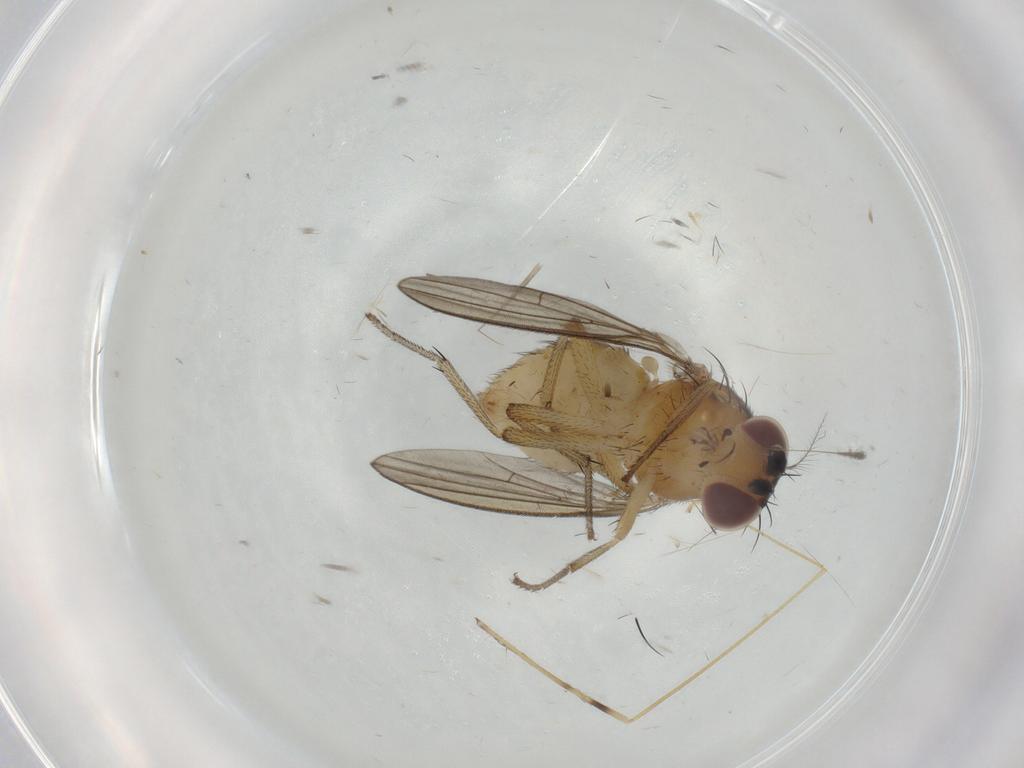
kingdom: Animalia
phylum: Arthropoda
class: Insecta
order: Diptera
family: Lauxaniidae
